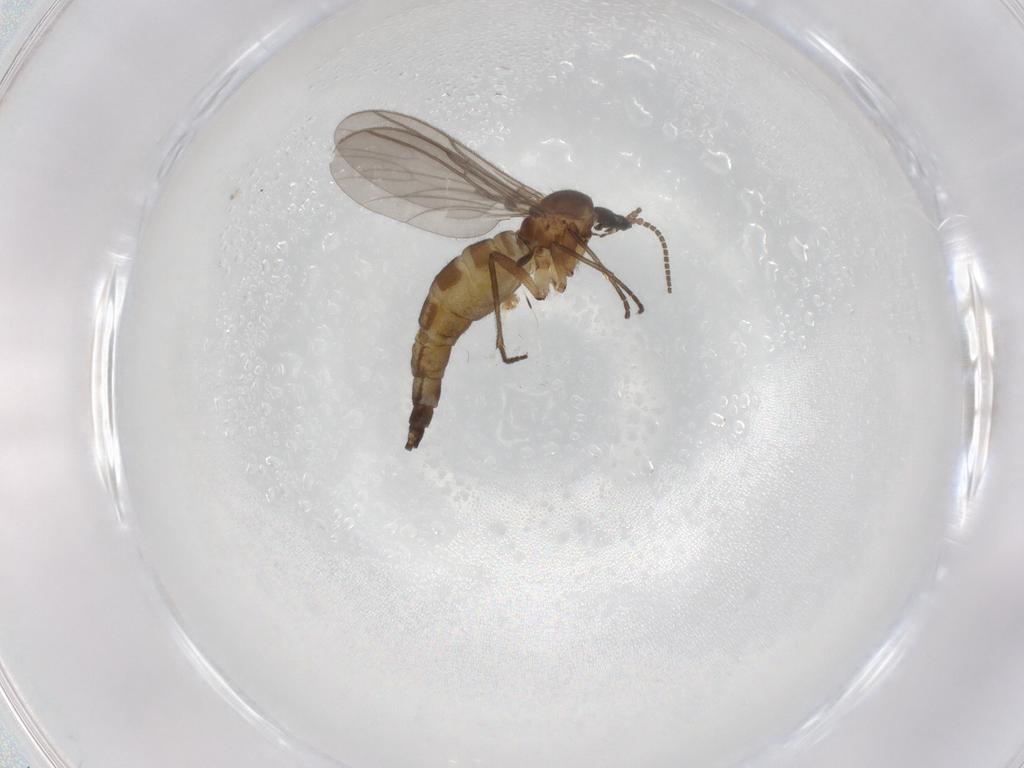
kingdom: Animalia
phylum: Arthropoda
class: Insecta
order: Diptera
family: Sciaridae
